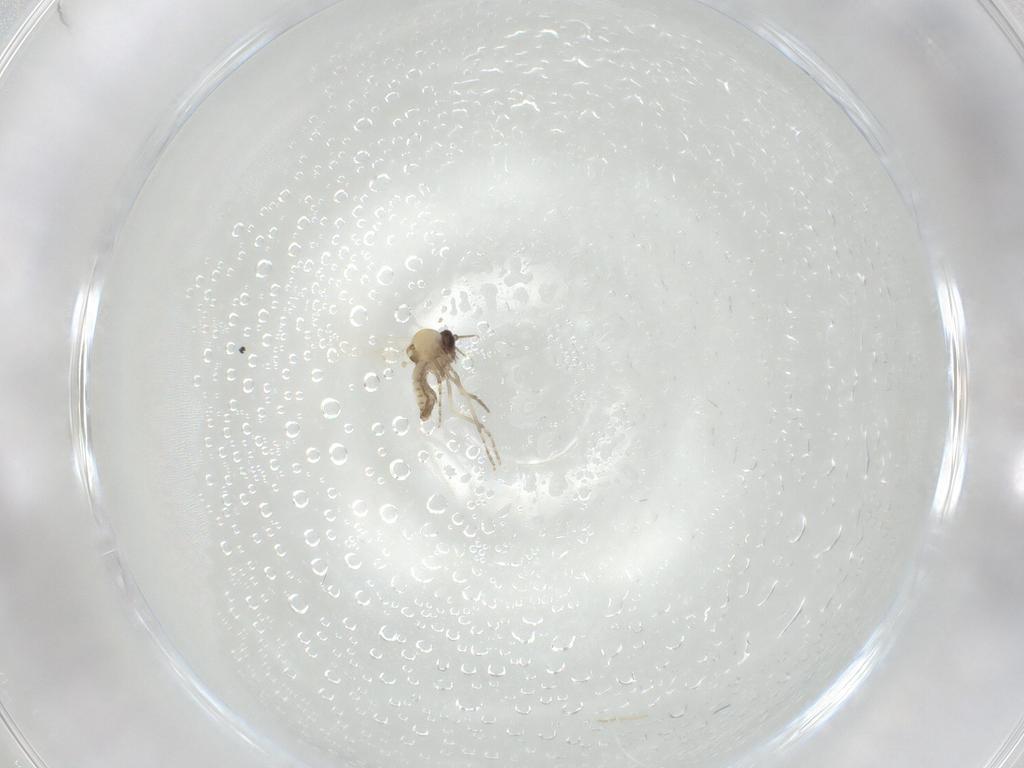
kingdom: Animalia
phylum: Arthropoda
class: Insecta
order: Diptera
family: Ceratopogonidae
